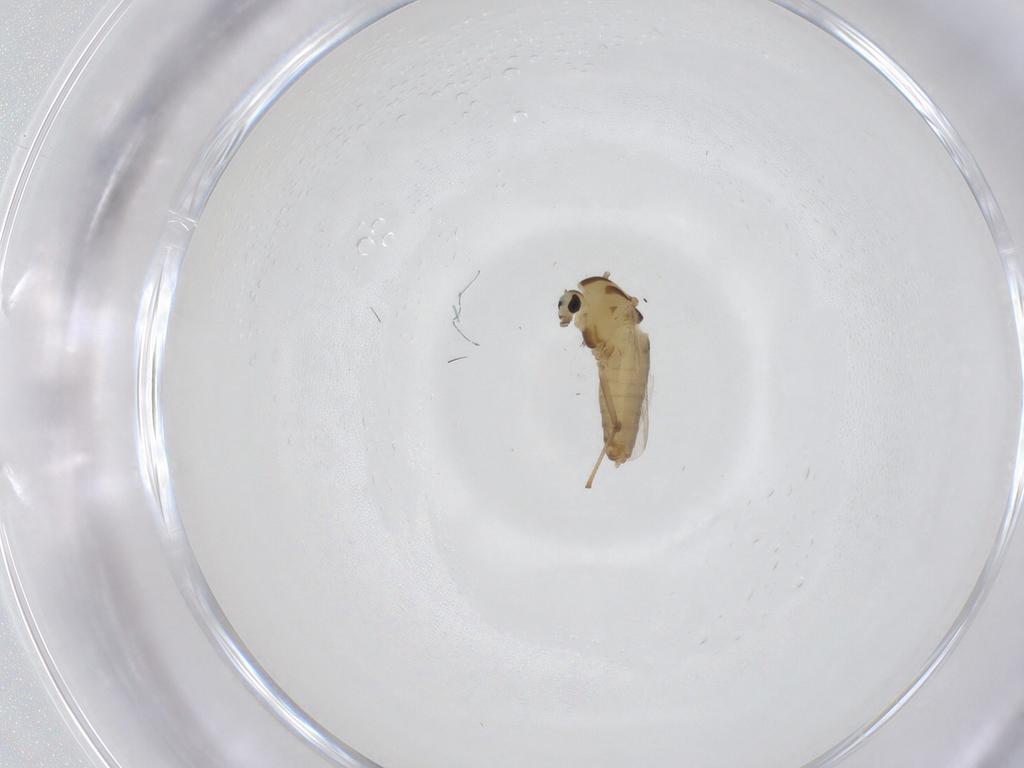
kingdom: Animalia
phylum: Arthropoda
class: Insecta
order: Diptera
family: Chironomidae
